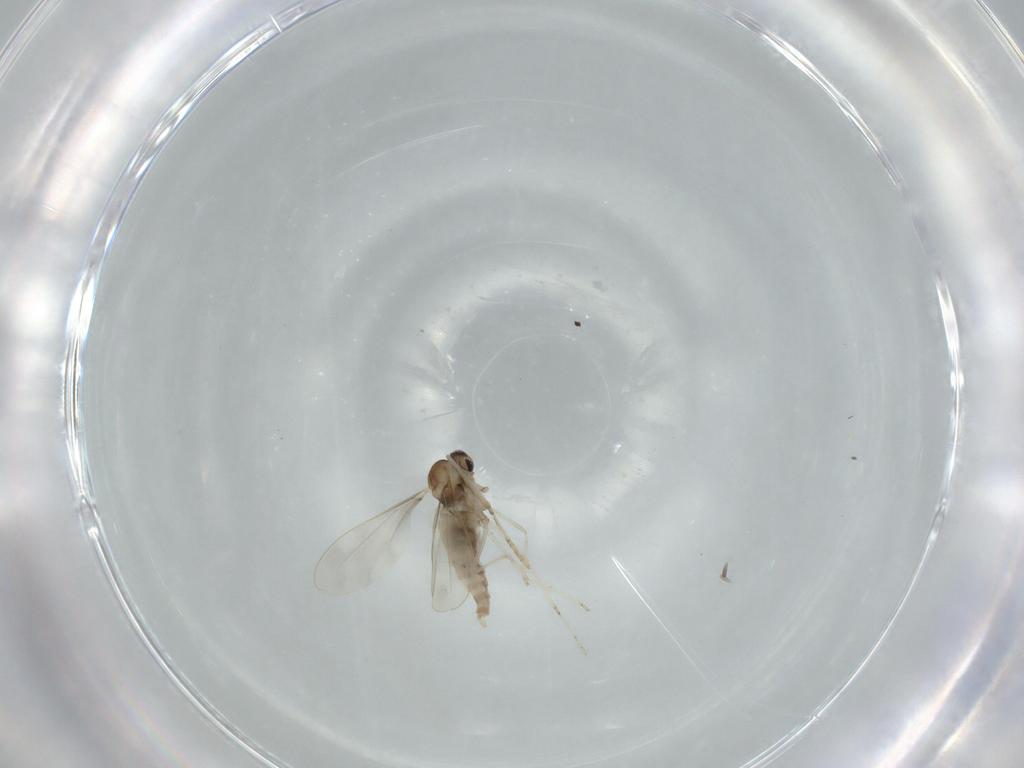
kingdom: Animalia
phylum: Arthropoda
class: Insecta
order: Diptera
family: Cecidomyiidae
